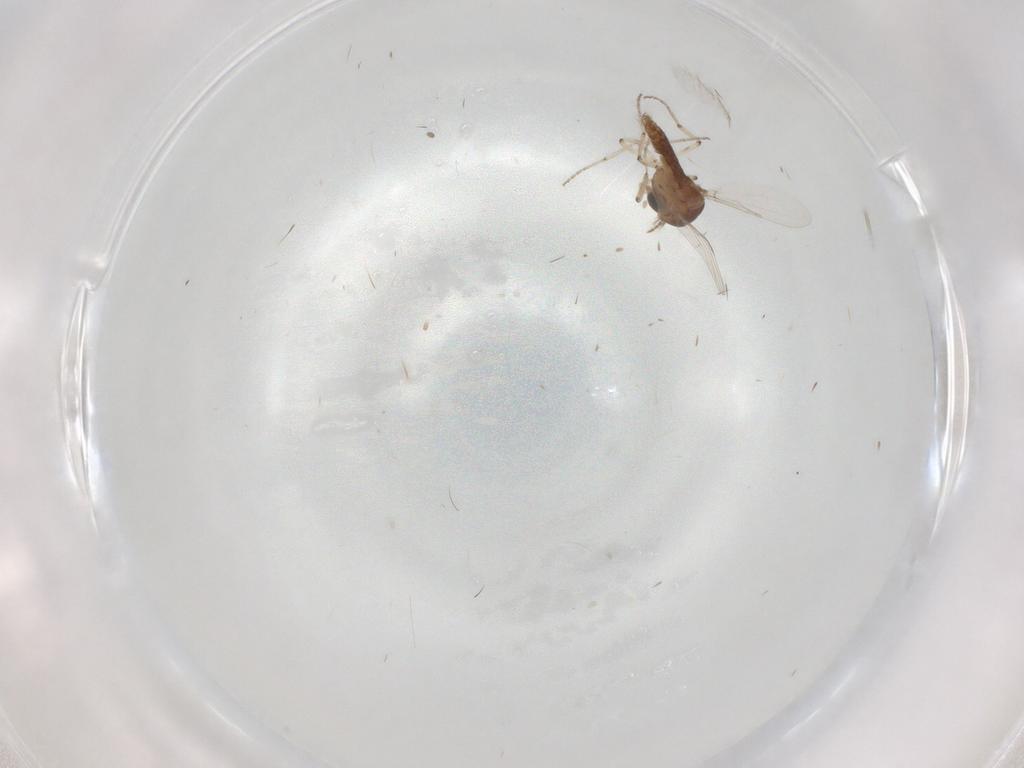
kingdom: Animalia
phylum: Arthropoda
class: Insecta
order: Diptera
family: Ceratopogonidae
